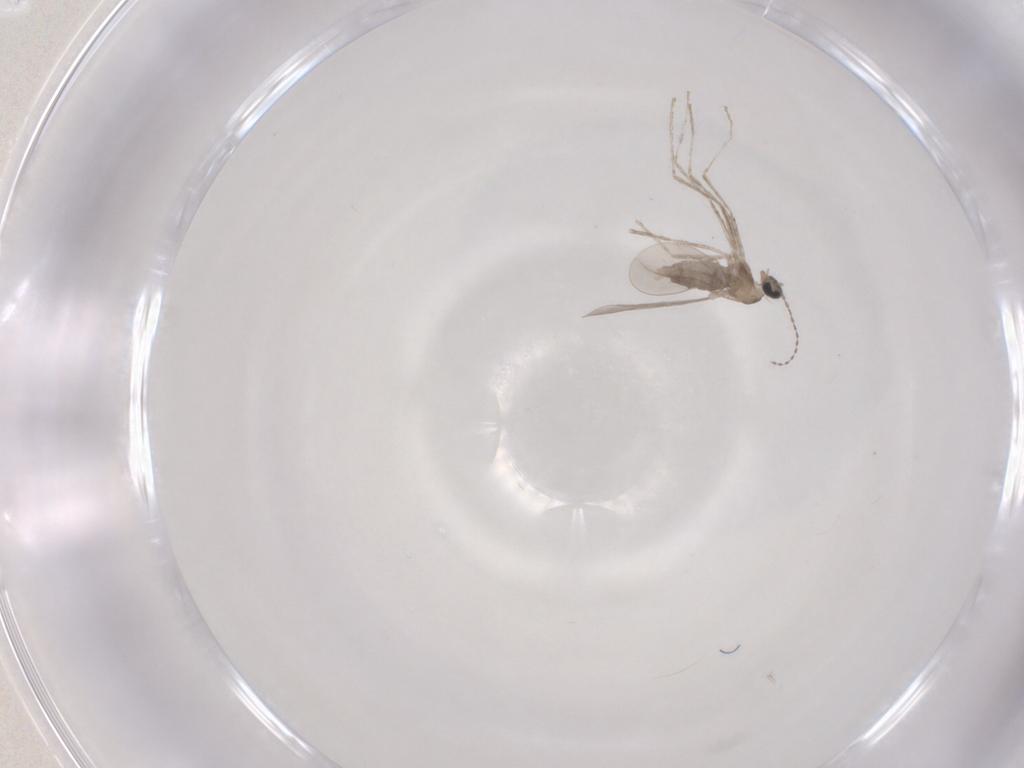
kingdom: Animalia
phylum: Arthropoda
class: Insecta
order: Diptera
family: Cecidomyiidae
